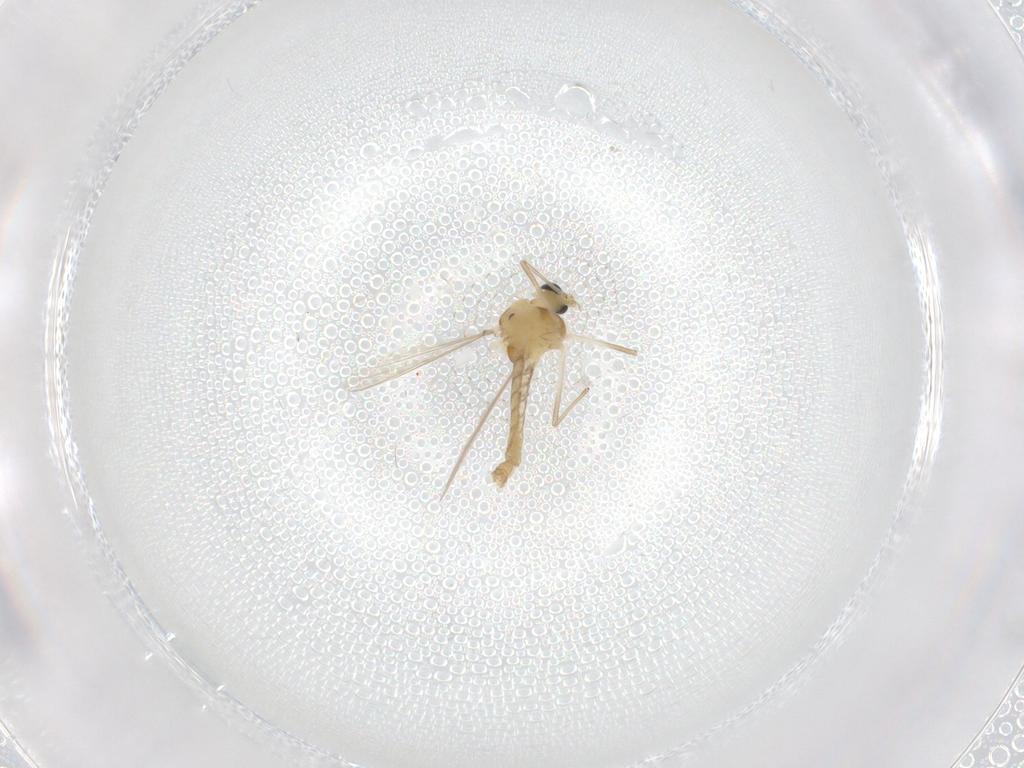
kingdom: Animalia
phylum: Arthropoda
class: Insecta
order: Diptera
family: Chironomidae
